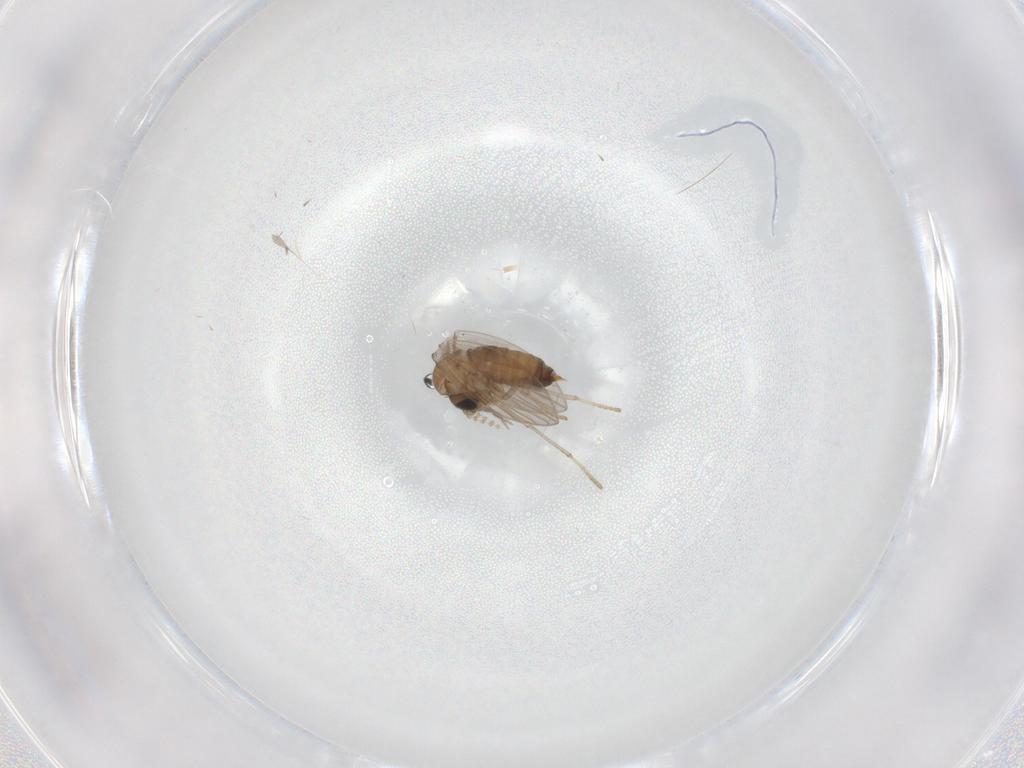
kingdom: Animalia
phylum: Arthropoda
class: Insecta
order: Diptera
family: Psychodidae
